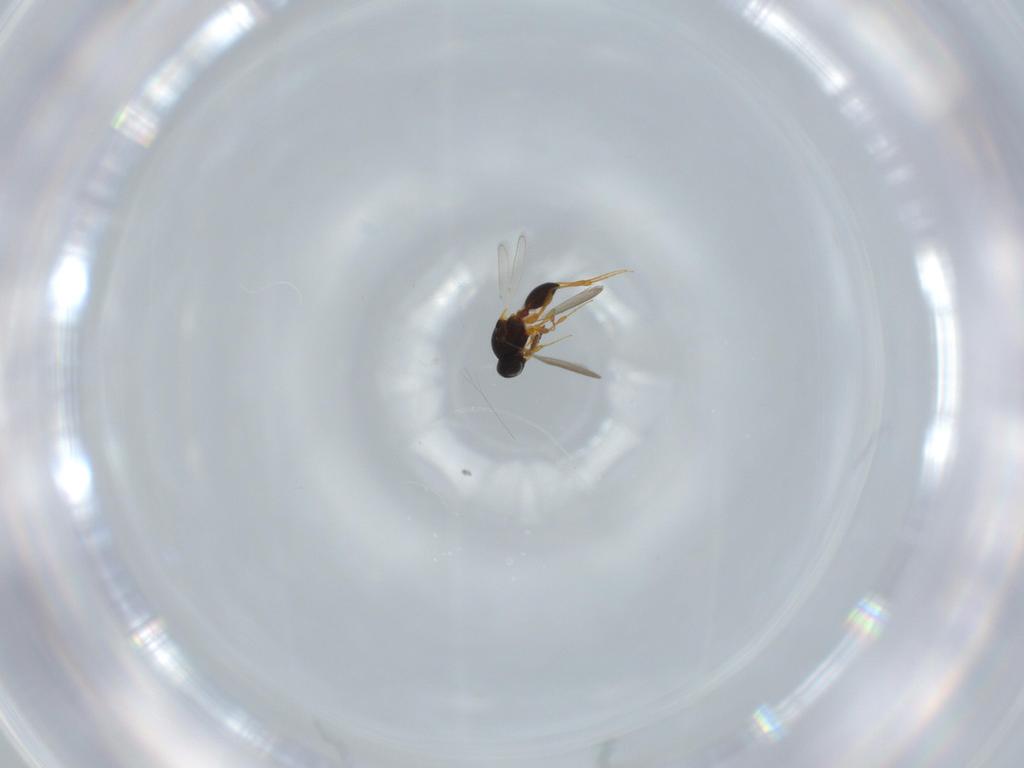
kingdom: Animalia
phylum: Arthropoda
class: Insecta
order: Hymenoptera
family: Platygastridae
